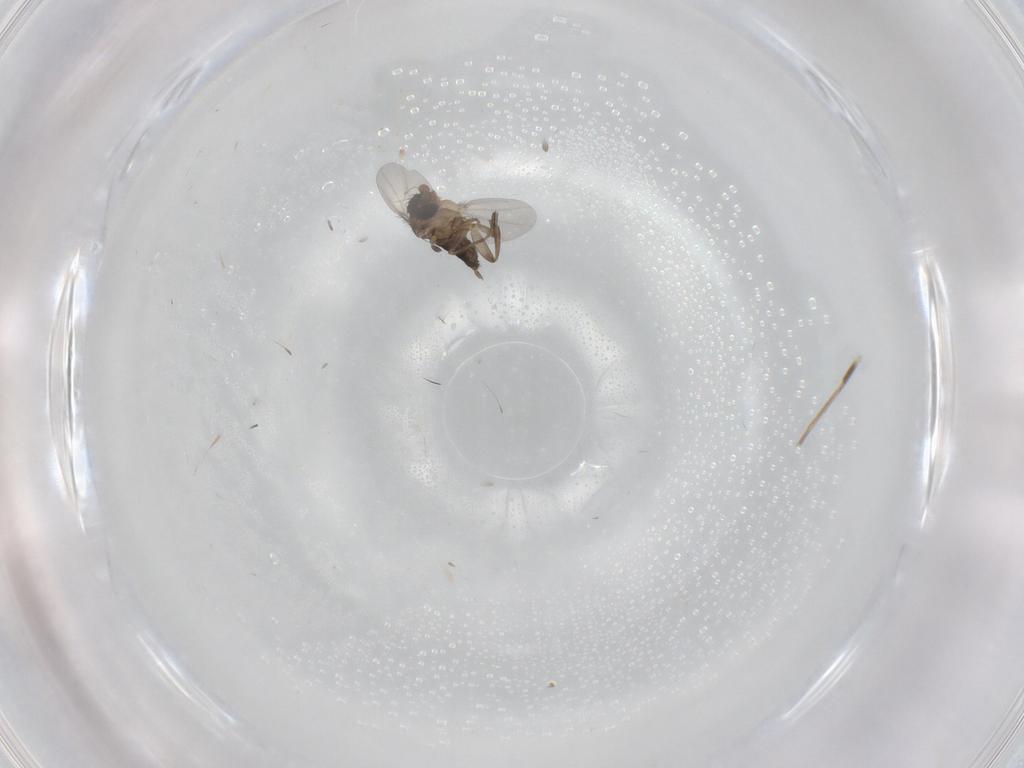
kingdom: Animalia
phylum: Arthropoda
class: Insecta
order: Diptera
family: Phoridae
